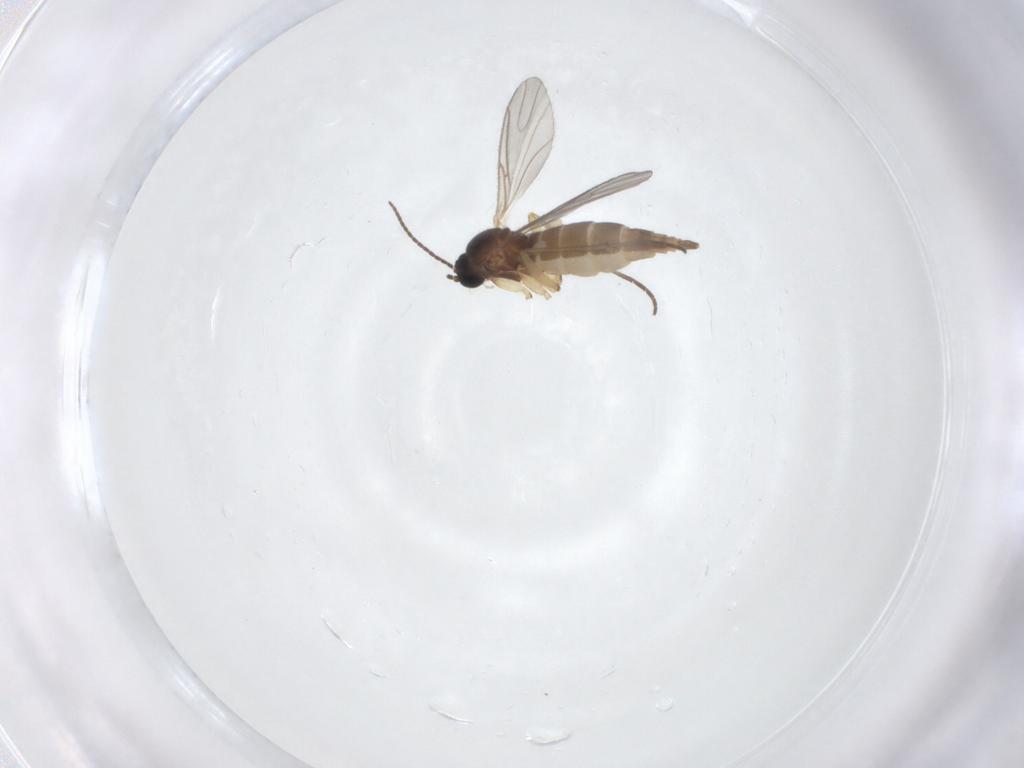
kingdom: Animalia
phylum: Arthropoda
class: Insecta
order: Diptera
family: Sciaridae
